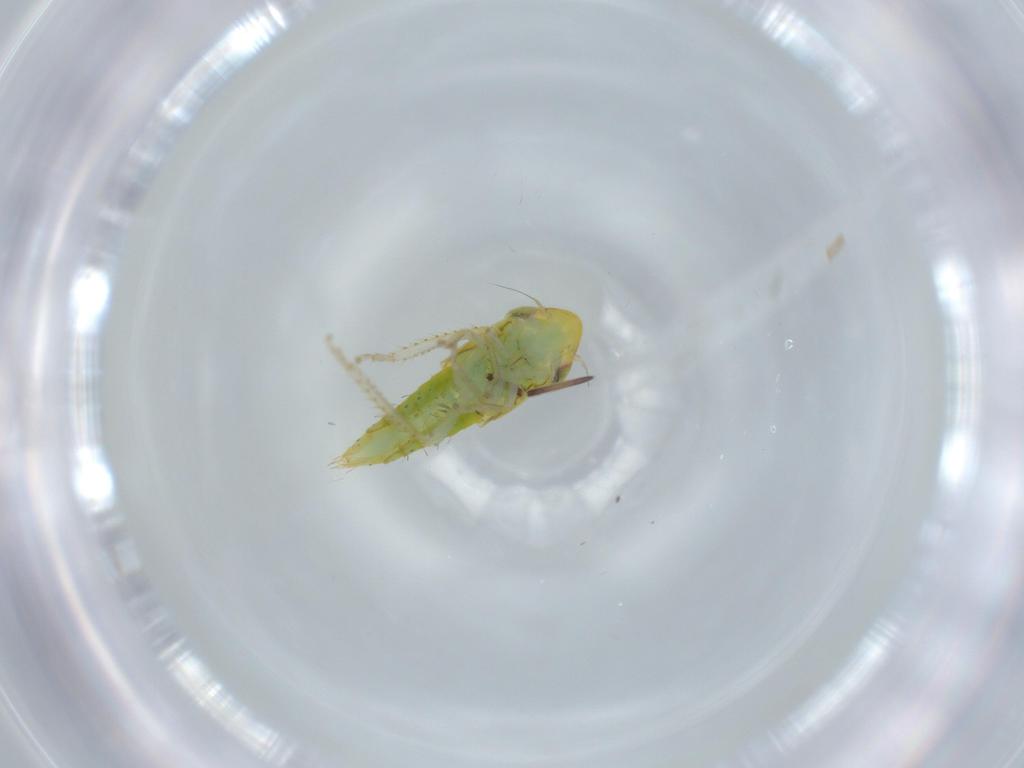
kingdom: Animalia
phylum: Arthropoda
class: Insecta
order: Hemiptera
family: Cicadellidae
